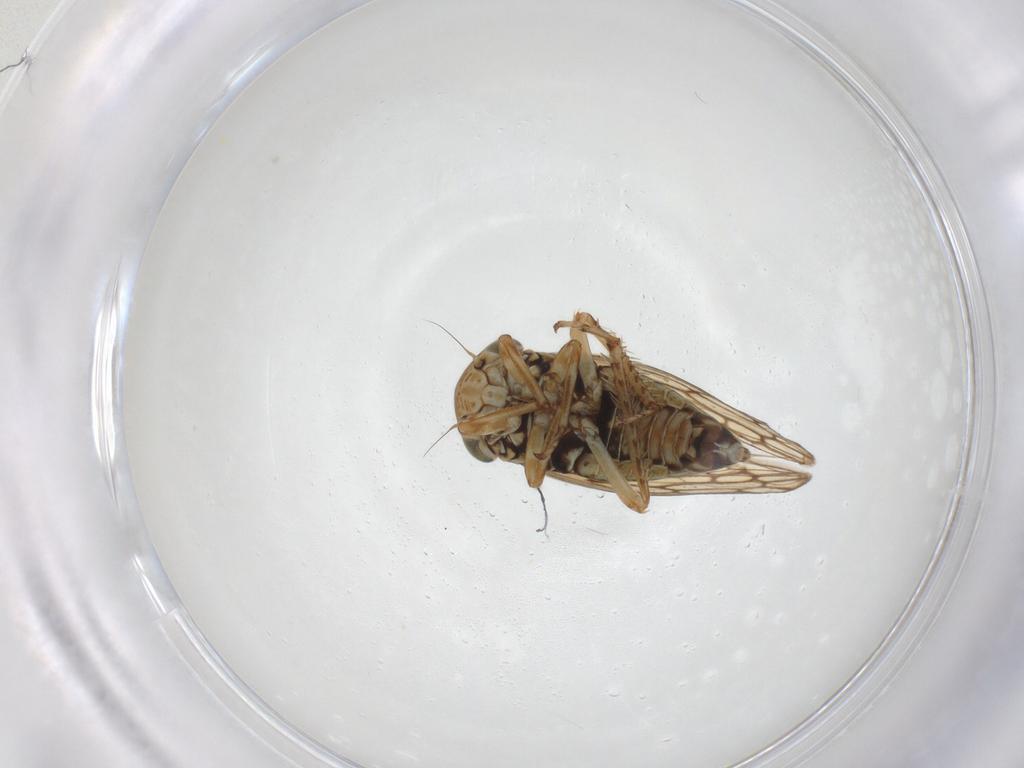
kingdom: Animalia
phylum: Arthropoda
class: Insecta
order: Hemiptera
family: Cicadellidae
